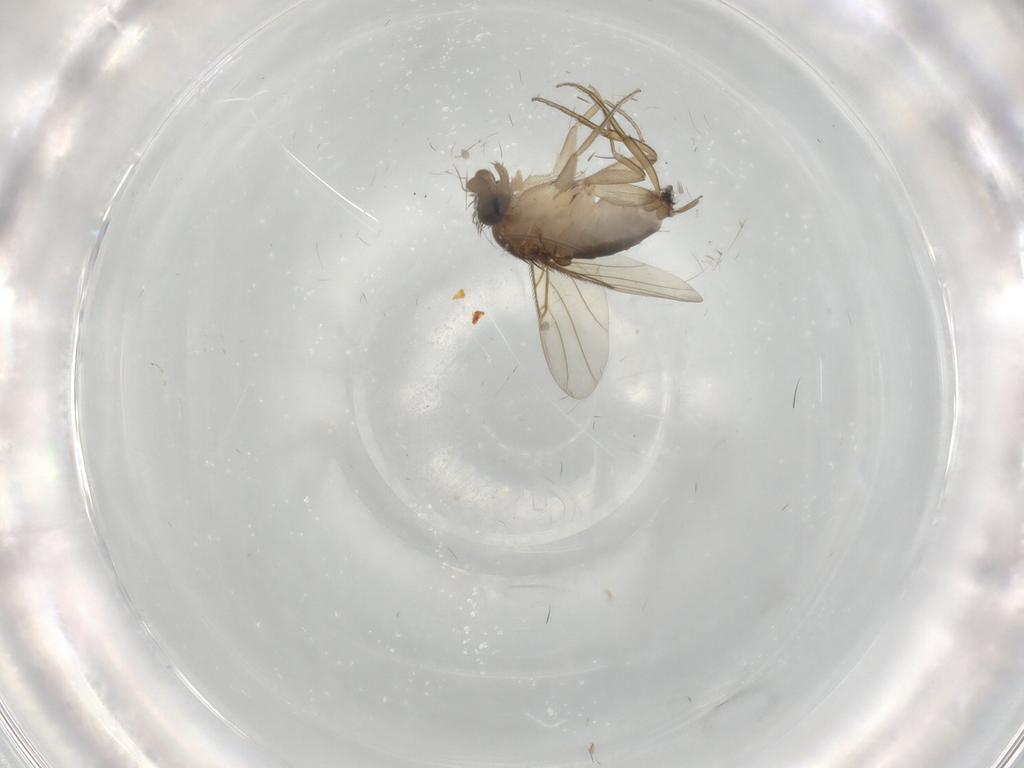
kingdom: Animalia
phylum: Arthropoda
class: Insecta
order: Diptera
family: Phoridae
